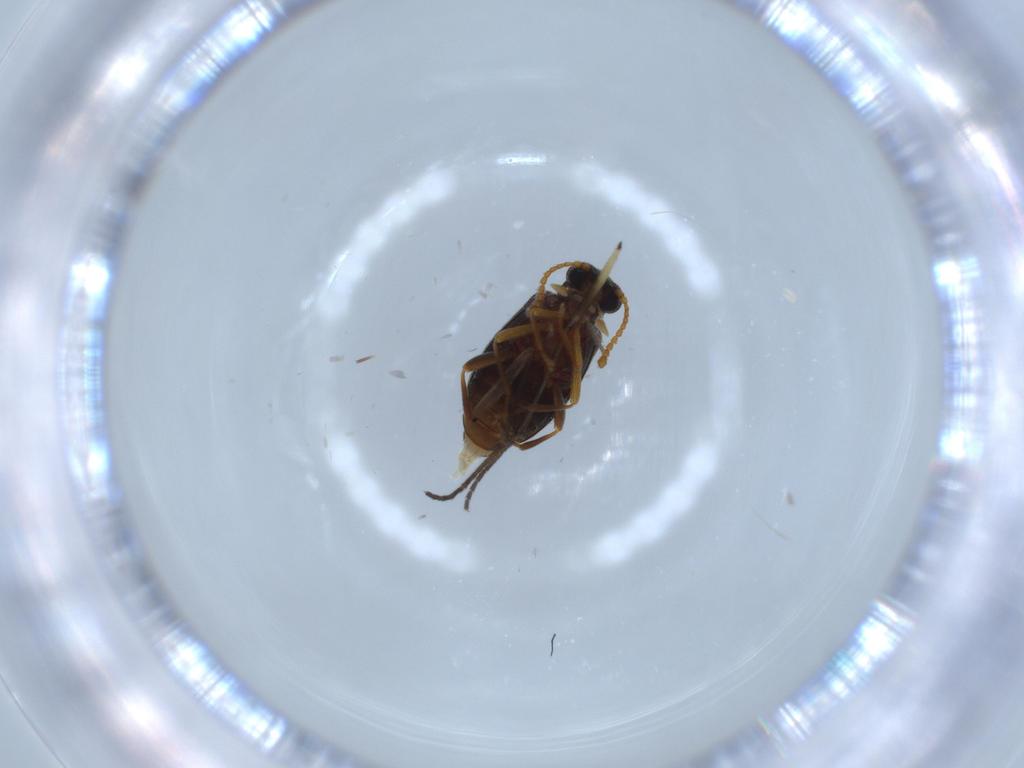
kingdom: Animalia
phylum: Arthropoda
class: Insecta
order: Coleoptera
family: Aderidae
